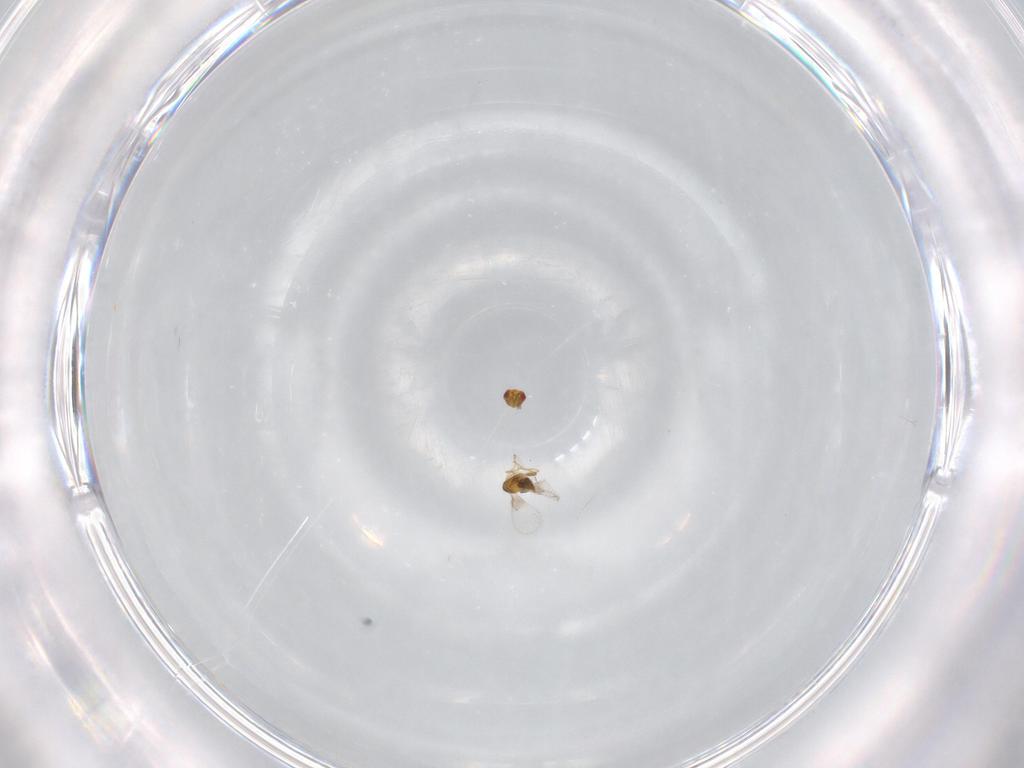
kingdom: Animalia
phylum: Arthropoda
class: Insecta
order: Hymenoptera
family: Trichogrammatidae
